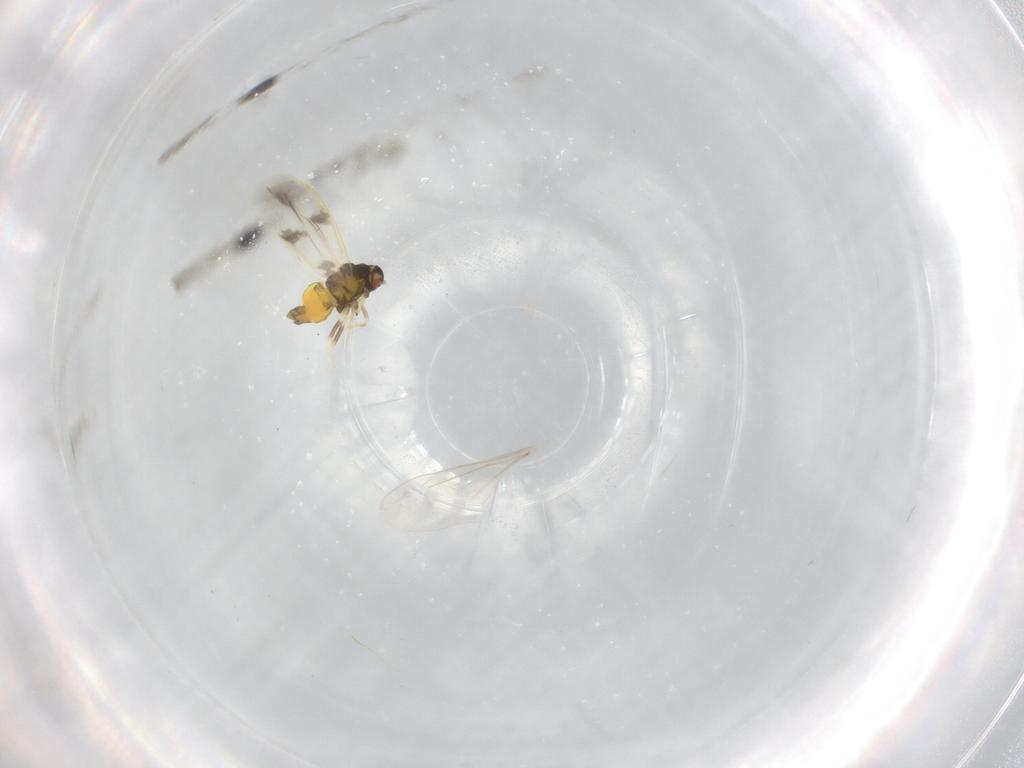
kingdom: Animalia
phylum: Arthropoda
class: Insecta
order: Hemiptera
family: Aleyrodidae
